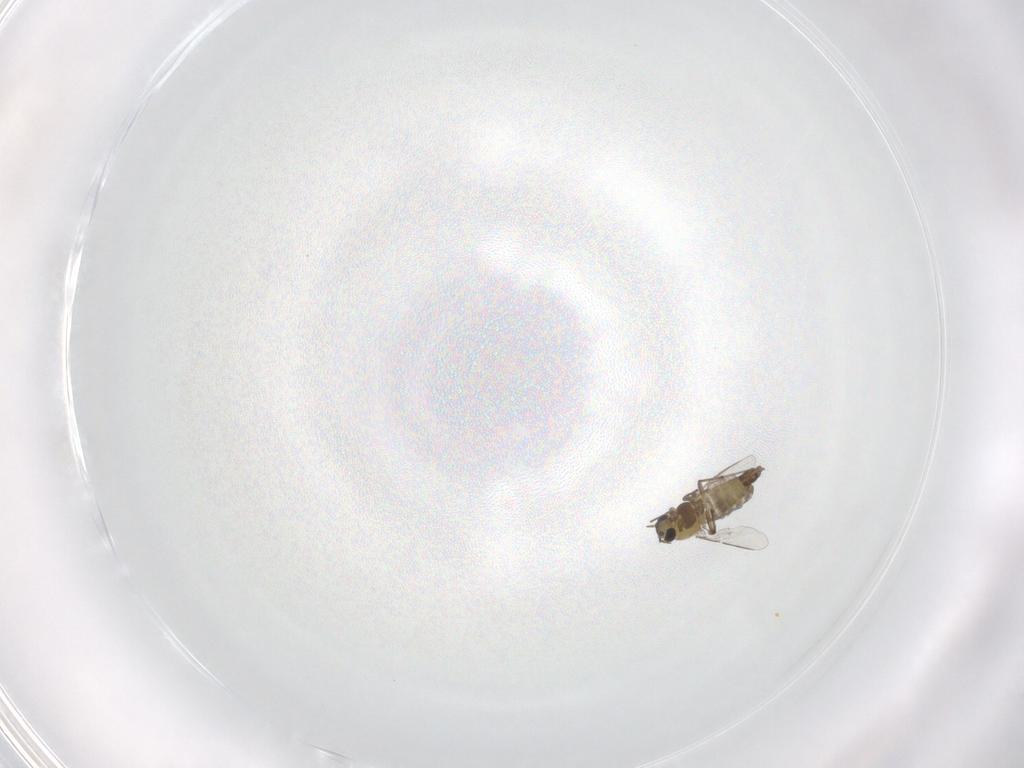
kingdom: Animalia
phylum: Arthropoda
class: Insecta
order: Diptera
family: Chironomidae
